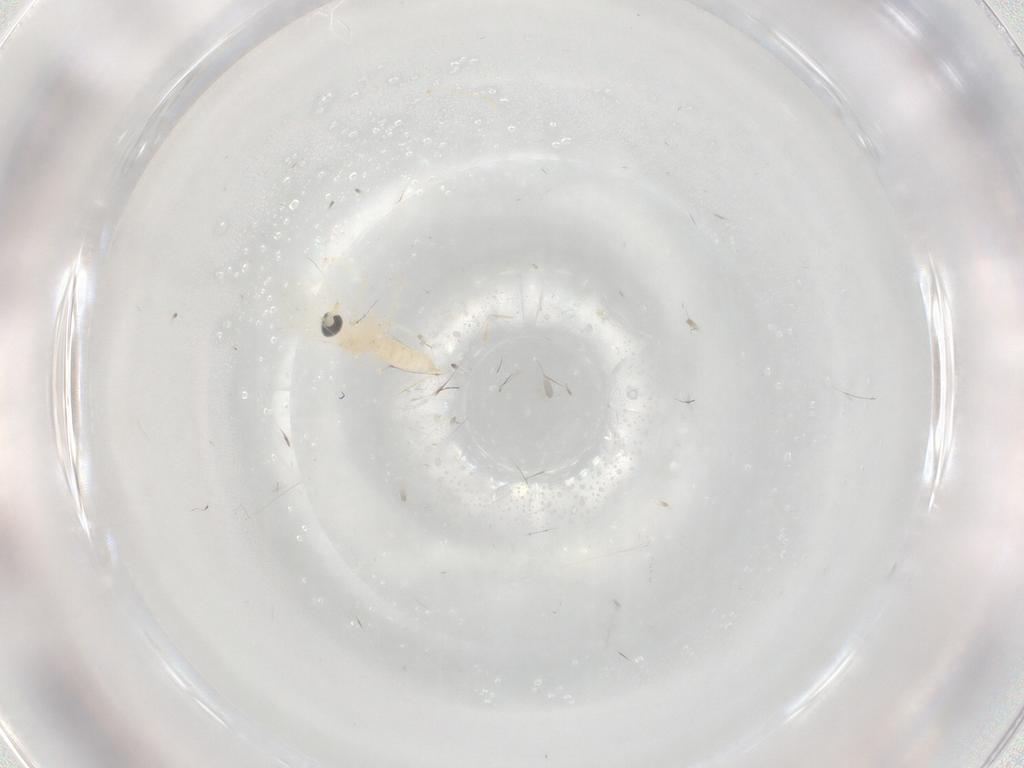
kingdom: Animalia
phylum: Arthropoda
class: Insecta
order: Diptera
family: Cecidomyiidae
